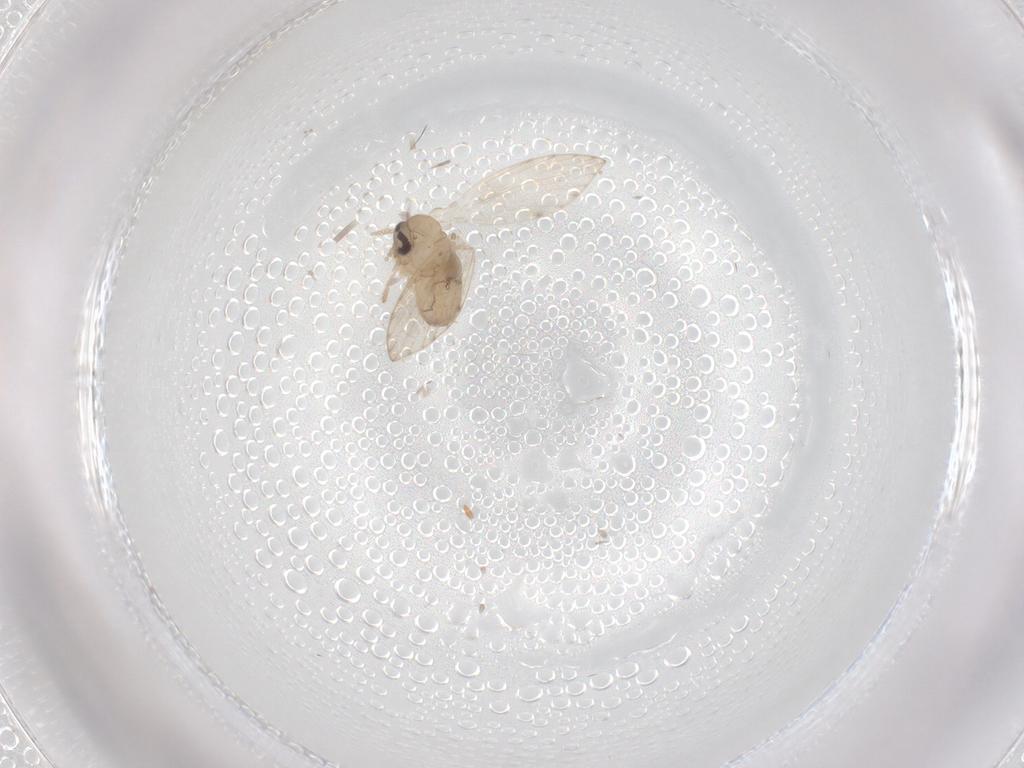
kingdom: Animalia
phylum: Arthropoda
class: Insecta
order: Diptera
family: Psychodidae
